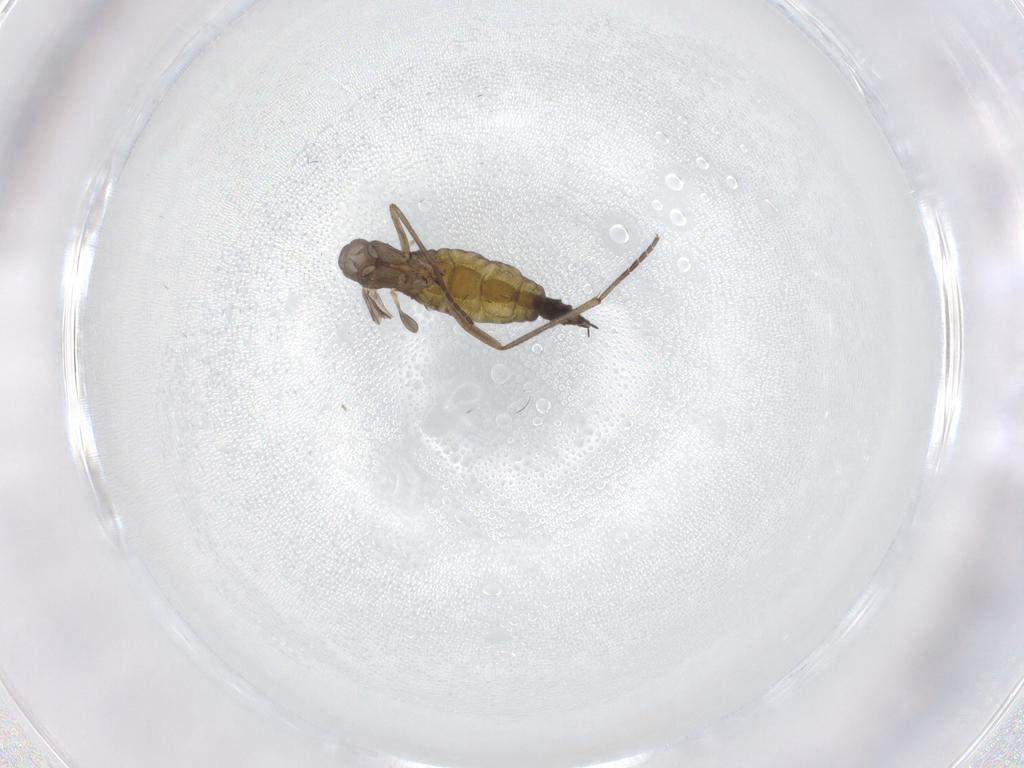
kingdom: Animalia
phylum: Arthropoda
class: Insecta
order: Diptera
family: Sciaridae
